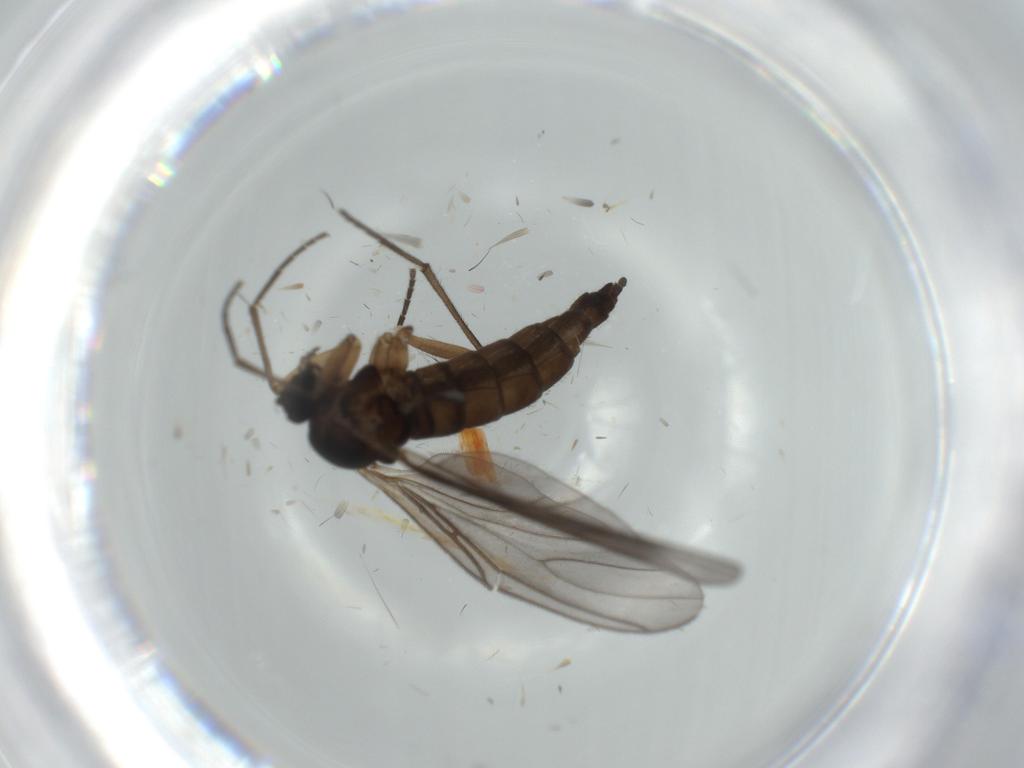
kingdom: Animalia
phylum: Arthropoda
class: Insecta
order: Diptera
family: Sciaridae
